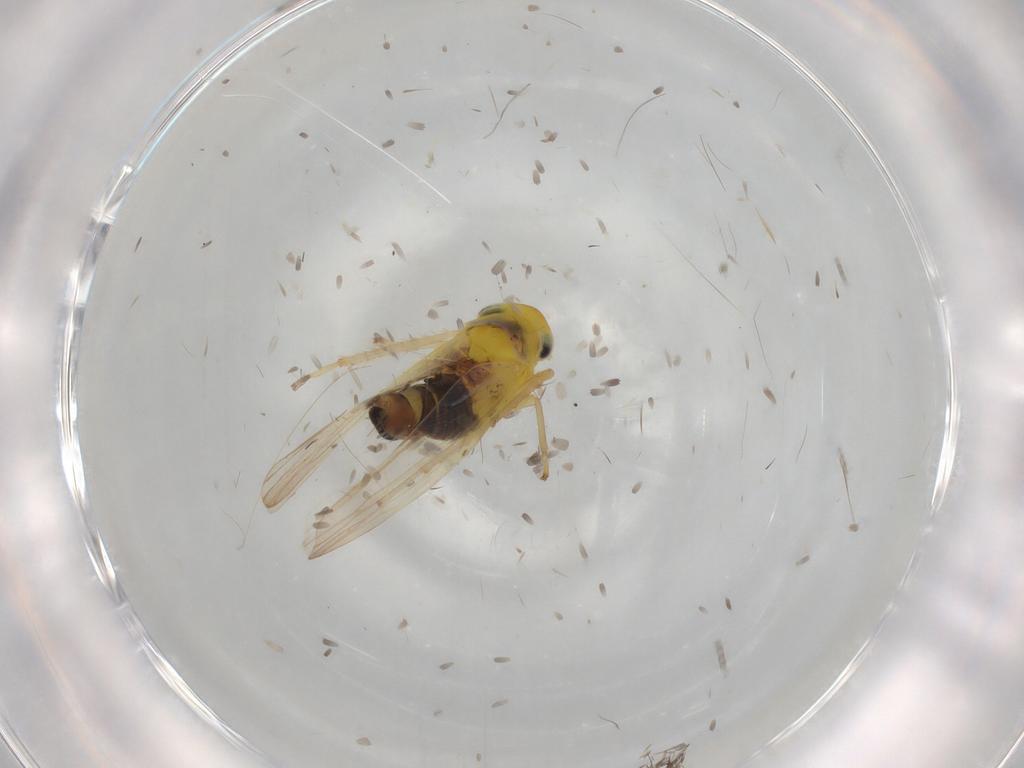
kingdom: Animalia
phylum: Arthropoda
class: Insecta
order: Hemiptera
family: Cicadellidae
